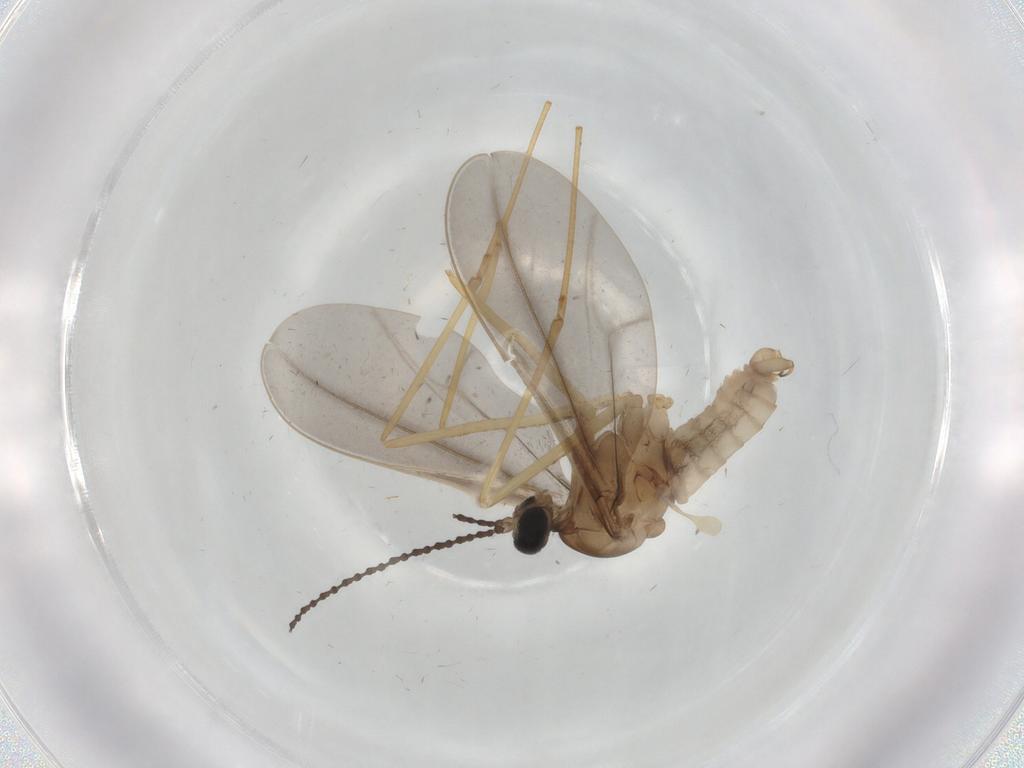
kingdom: Animalia
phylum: Arthropoda
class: Insecta
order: Diptera
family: Cecidomyiidae
